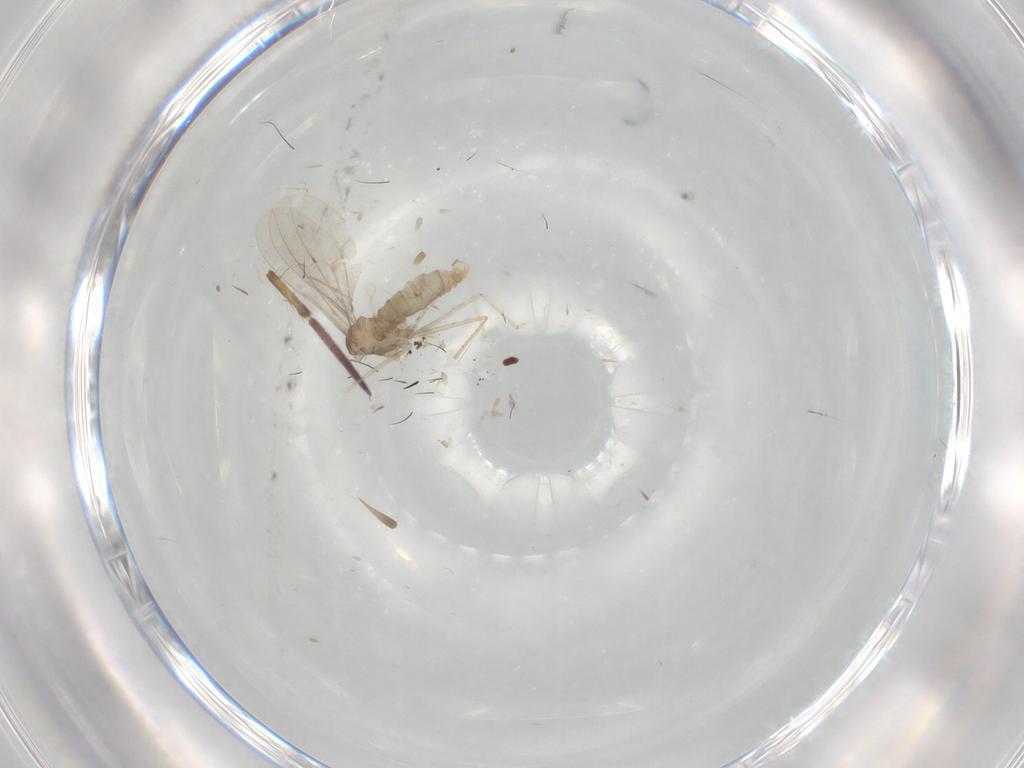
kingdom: Animalia
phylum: Arthropoda
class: Insecta
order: Diptera
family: Cecidomyiidae
